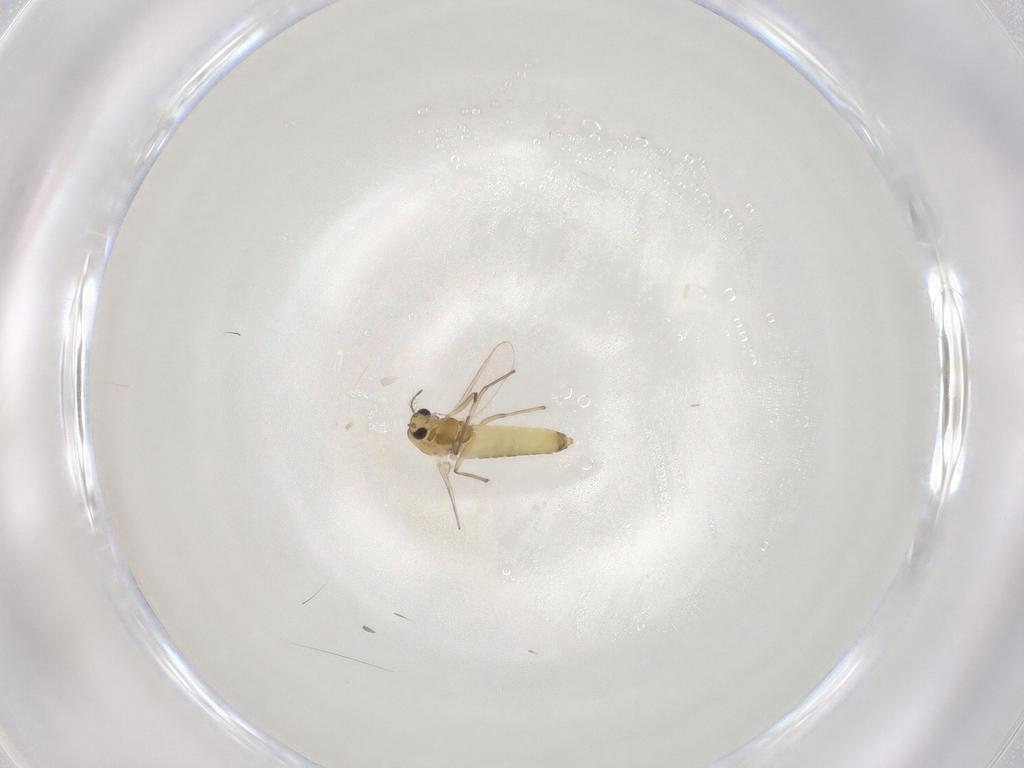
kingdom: Animalia
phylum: Arthropoda
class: Insecta
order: Diptera
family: Chironomidae
